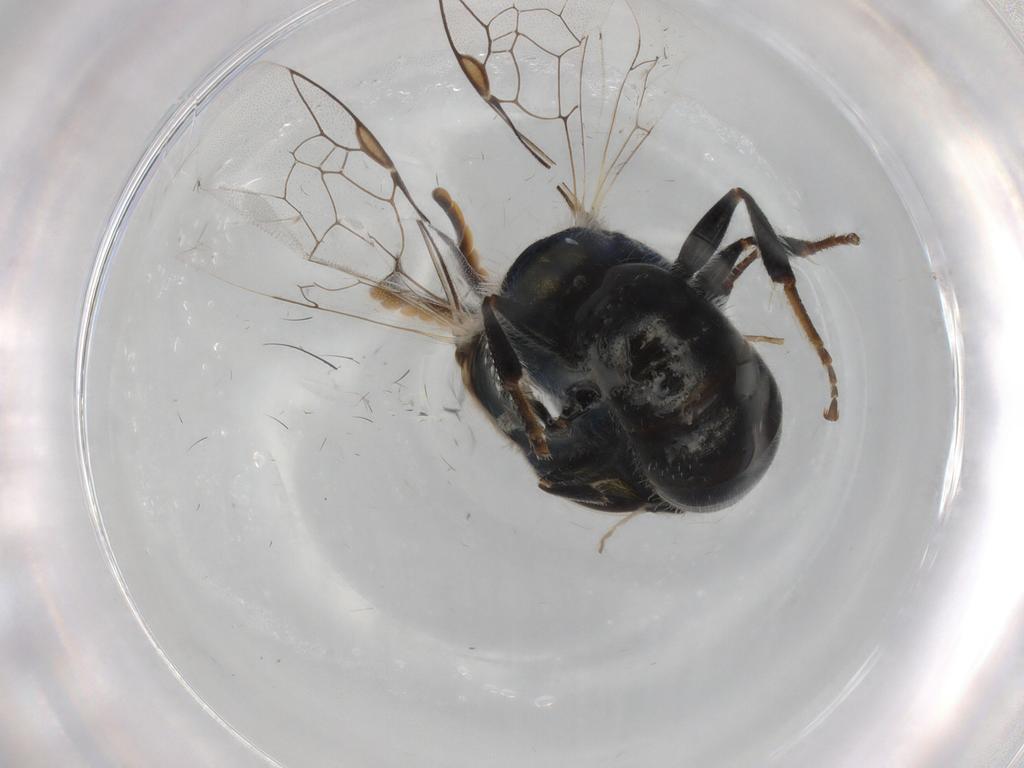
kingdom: Animalia
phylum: Arthropoda
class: Insecta
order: Hymenoptera
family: Halictidae
